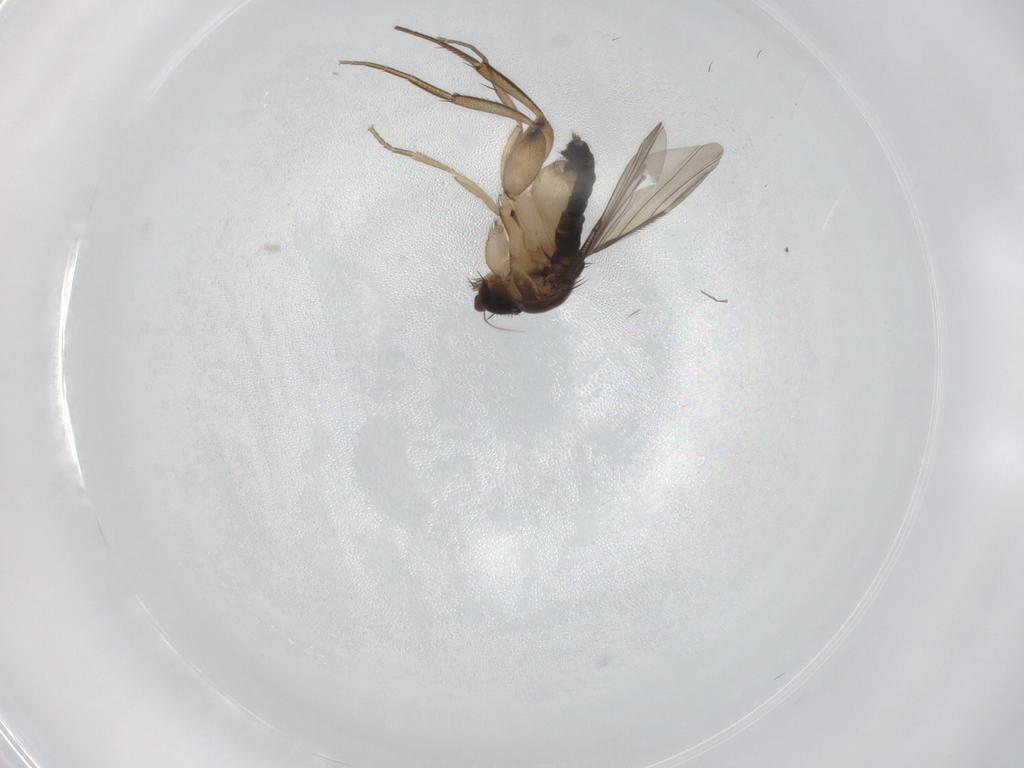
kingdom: Animalia
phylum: Arthropoda
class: Insecta
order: Diptera
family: Phoridae
